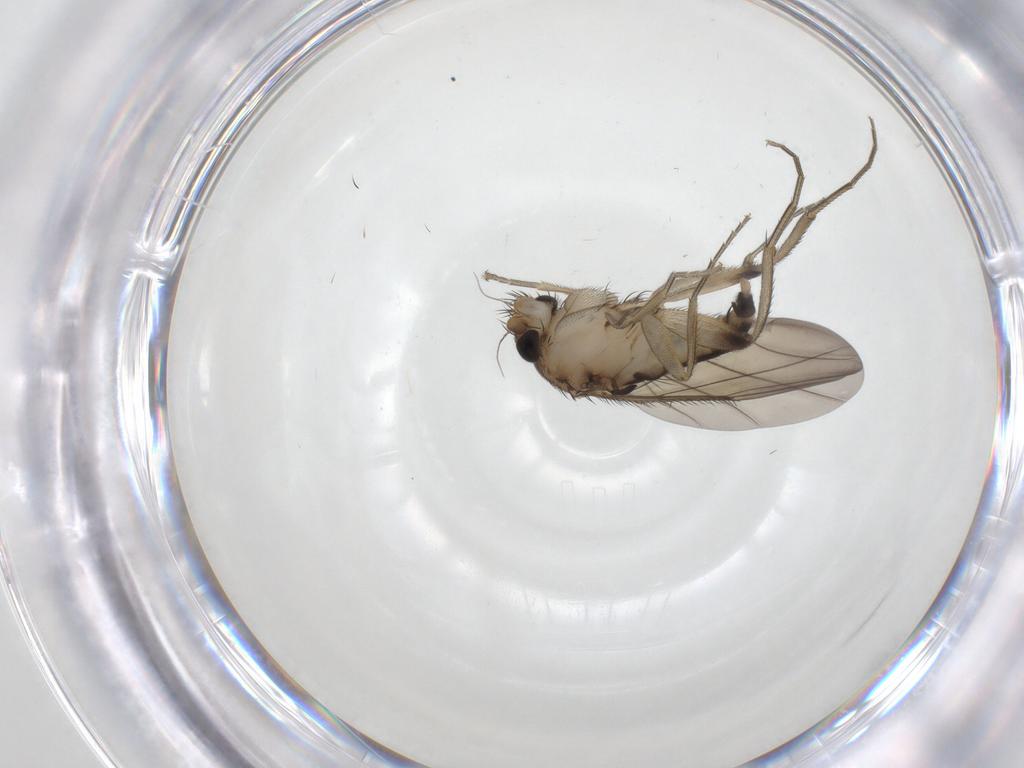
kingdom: Animalia
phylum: Arthropoda
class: Insecta
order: Diptera
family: Phoridae
